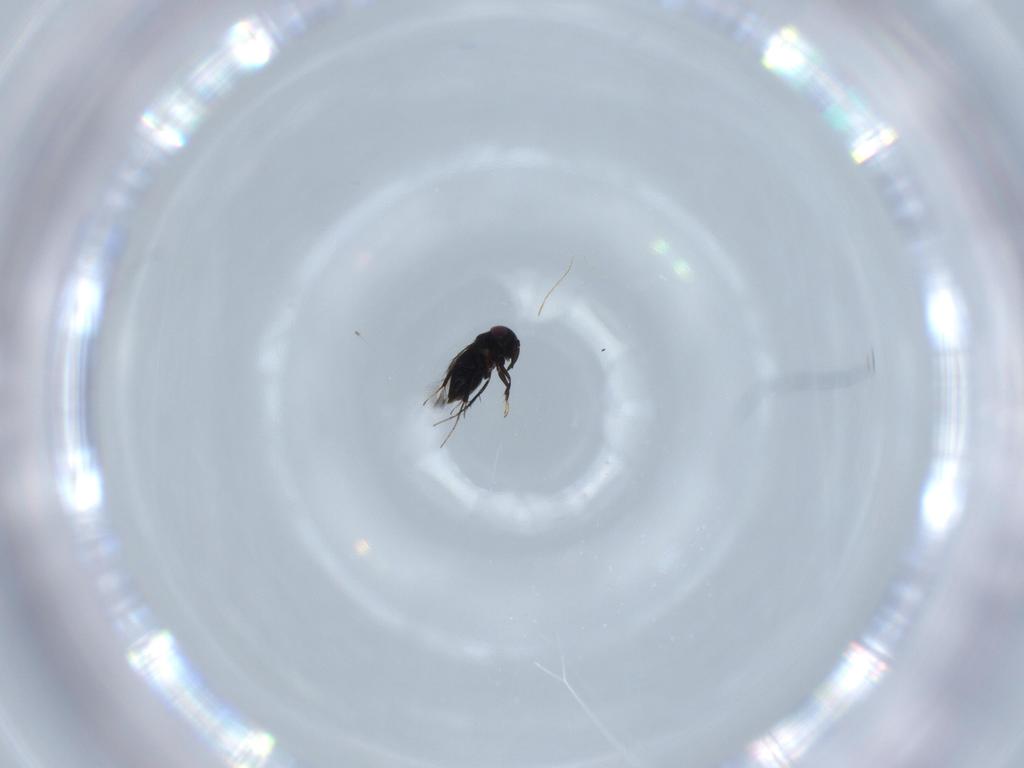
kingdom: Animalia
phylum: Arthropoda
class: Insecta
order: Hymenoptera
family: Signiphoridae
